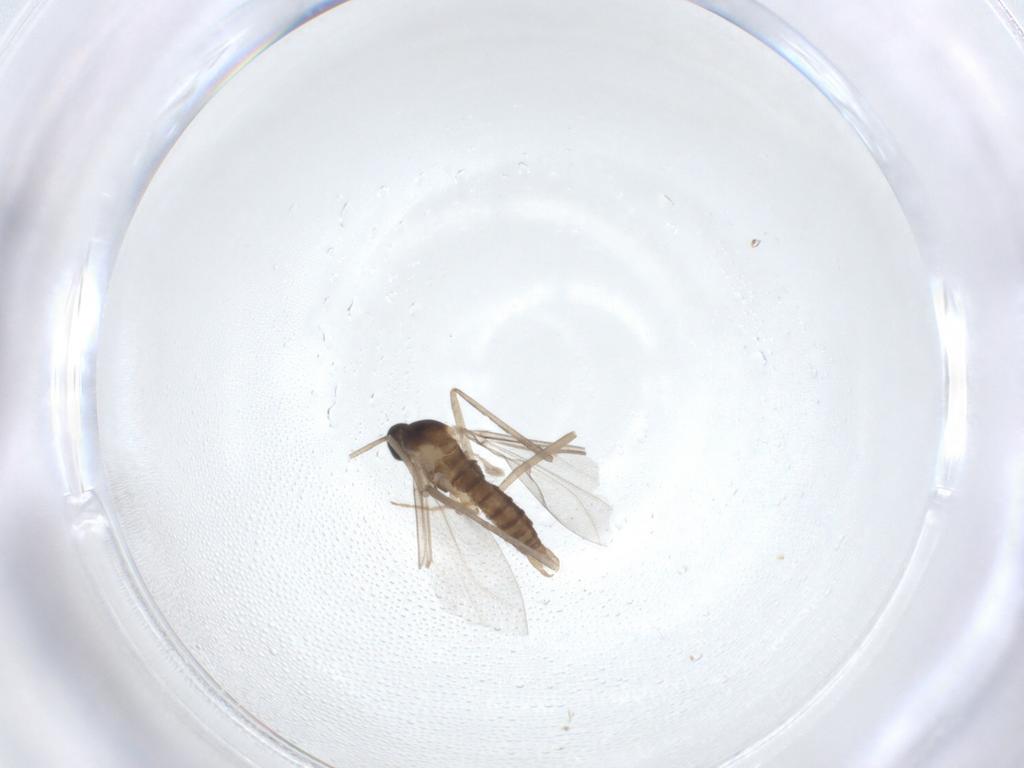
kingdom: Animalia
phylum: Arthropoda
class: Insecta
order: Diptera
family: Cecidomyiidae
